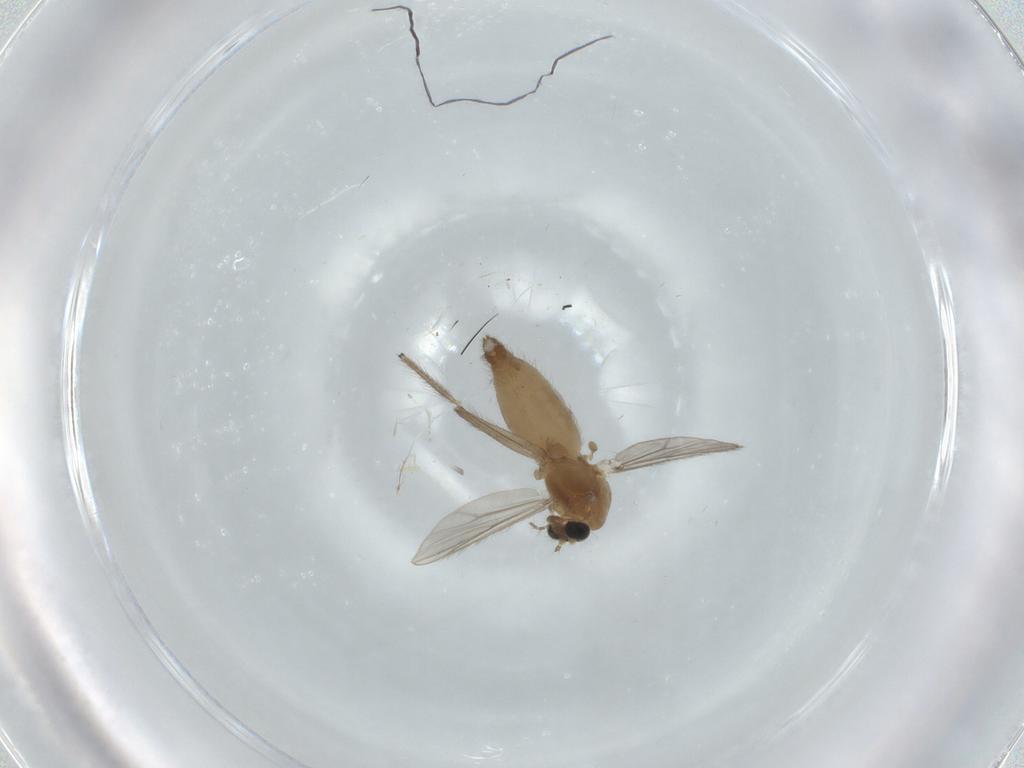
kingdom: Animalia
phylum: Arthropoda
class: Insecta
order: Diptera
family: Chironomidae
